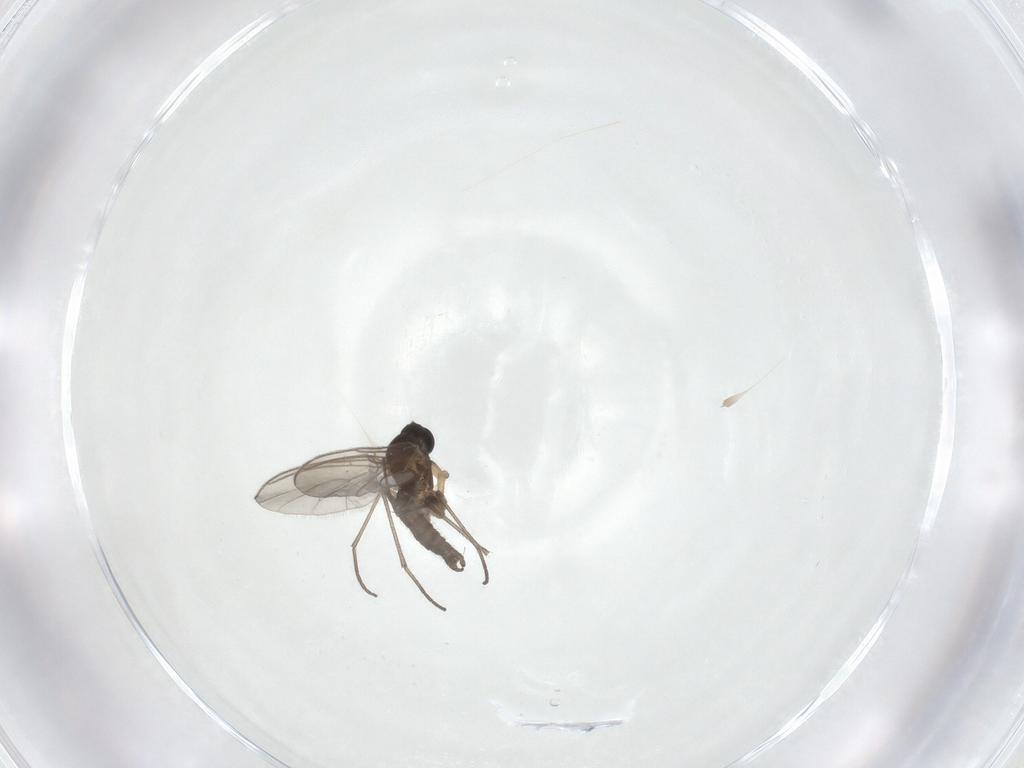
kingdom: Animalia
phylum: Arthropoda
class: Insecta
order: Diptera
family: Sciaridae
